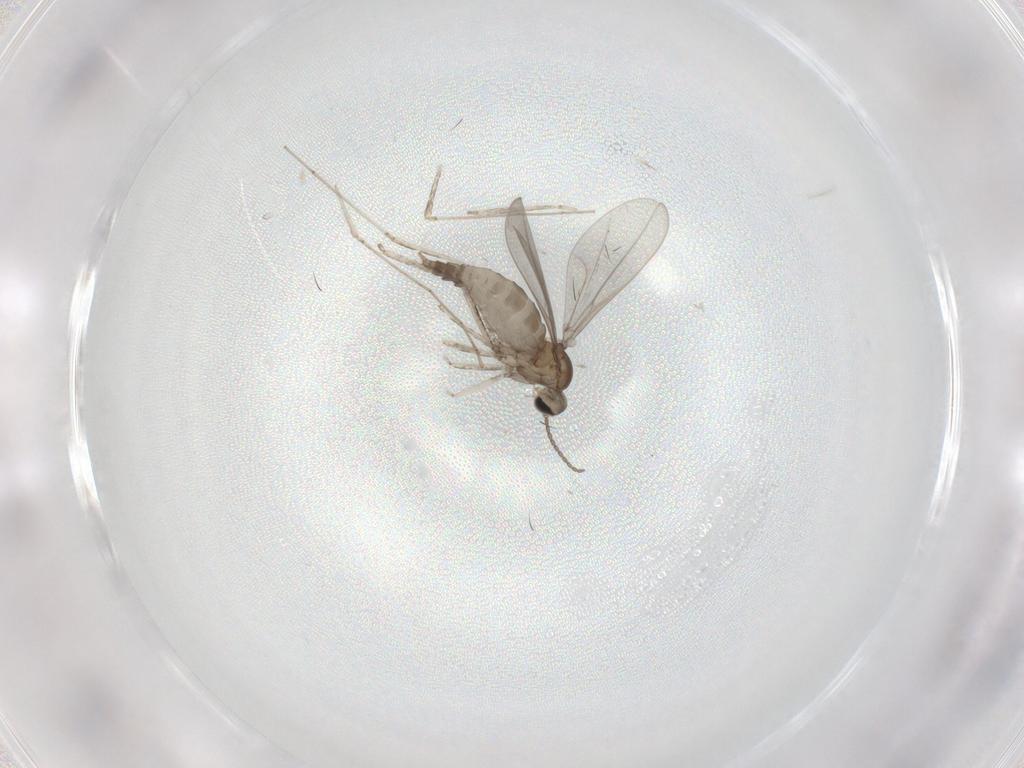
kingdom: Animalia
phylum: Arthropoda
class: Insecta
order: Diptera
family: Cecidomyiidae
